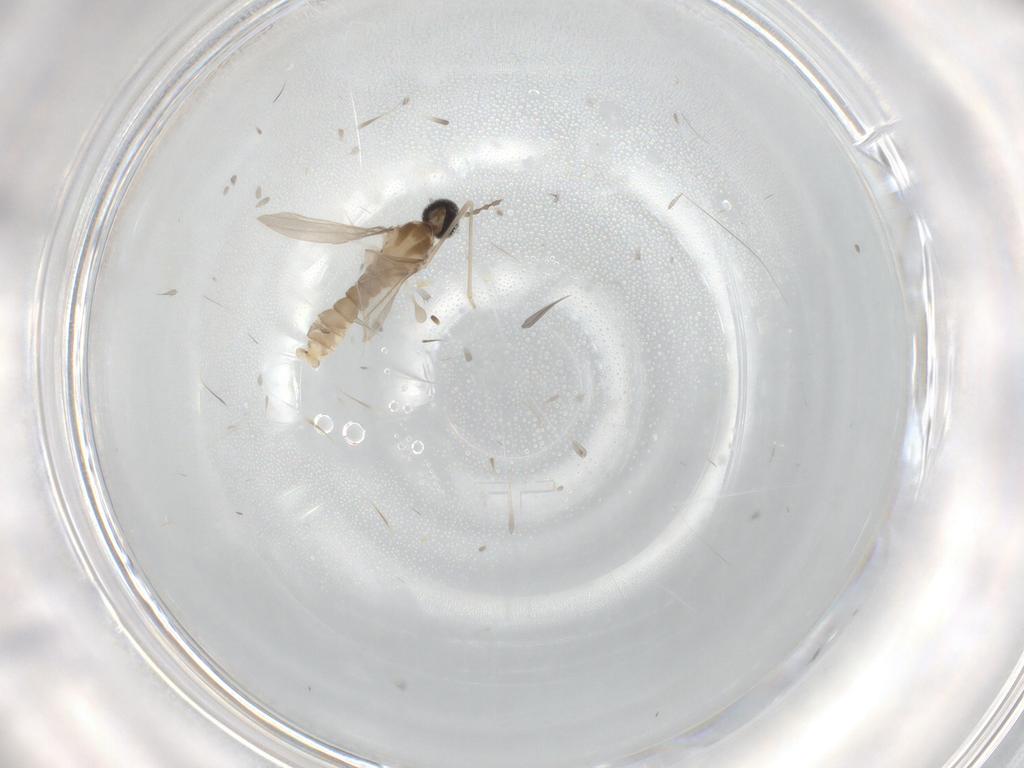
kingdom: Animalia
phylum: Arthropoda
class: Insecta
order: Diptera
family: Cecidomyiidae
